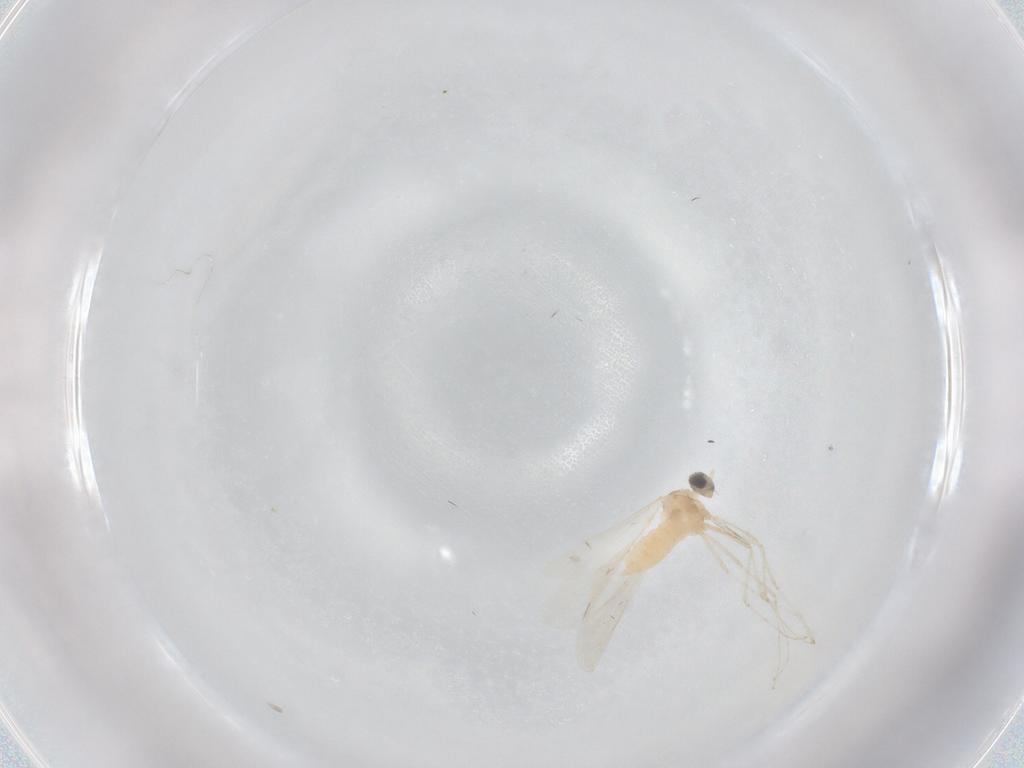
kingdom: Animalia
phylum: Arthropoda
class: Insecta
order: Diptera
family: Cecidomyiidae
